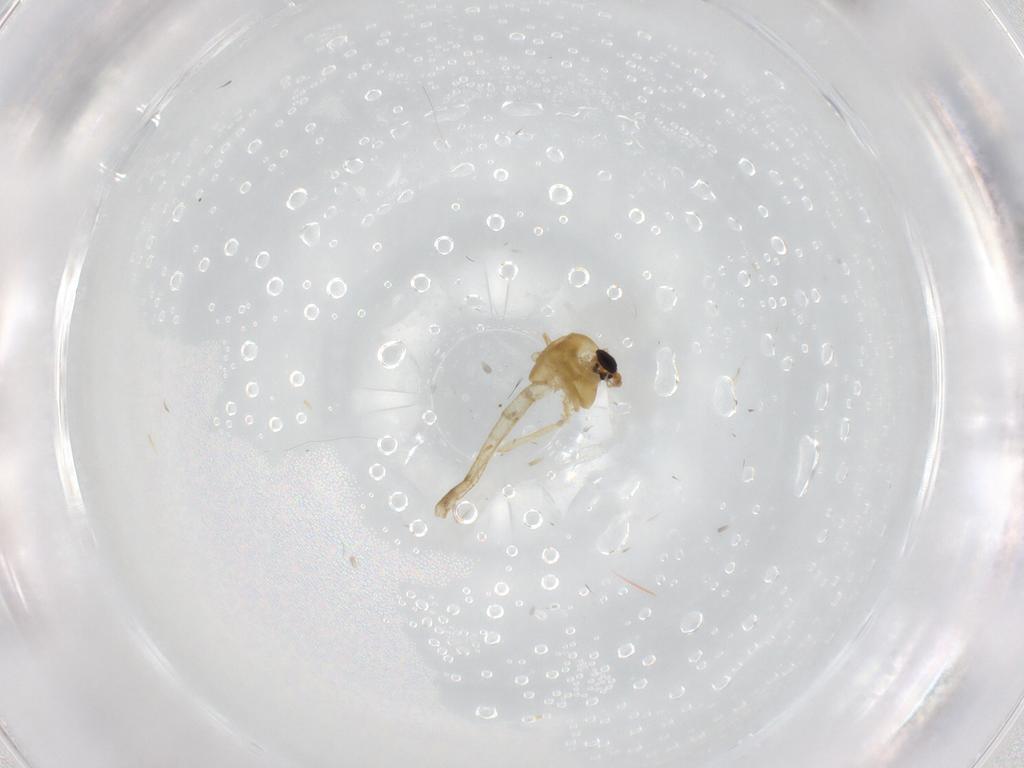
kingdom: Animalia
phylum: Arthropoda
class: Insecta
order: Diptera
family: Chironomidae
